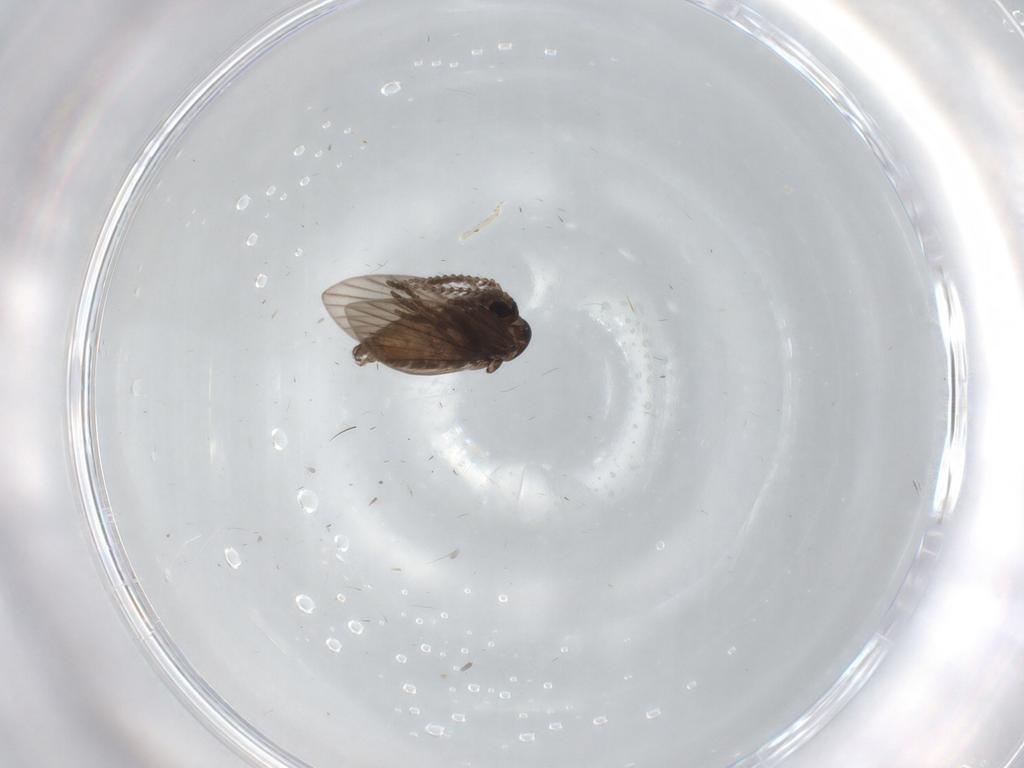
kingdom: Animalia
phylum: Arthropoda
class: Insecta
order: Diptera
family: Psychodidae
